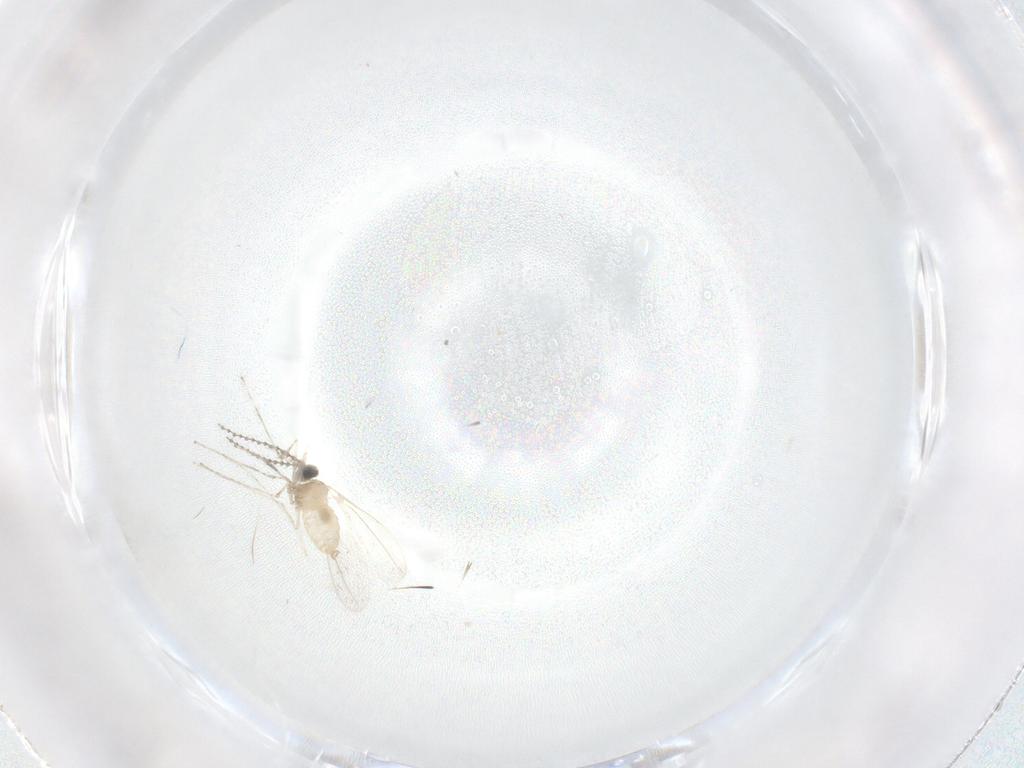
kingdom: Animalia
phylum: Arthropoda
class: Insecta
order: Diptera
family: Cecidomyiidae
